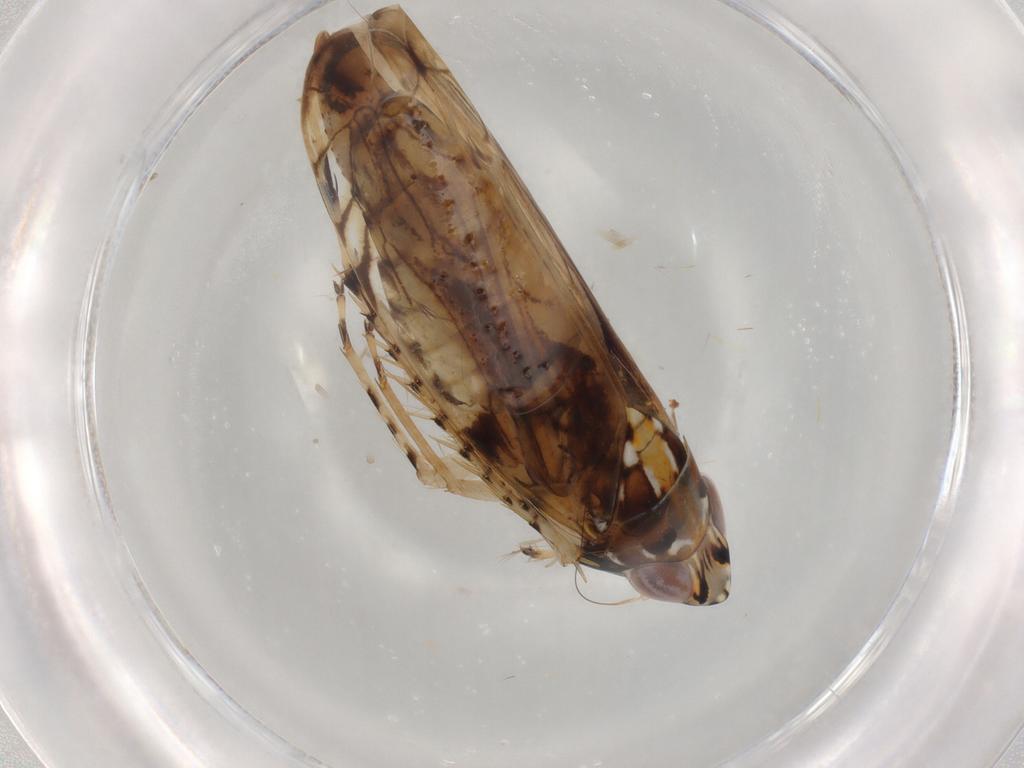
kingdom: Animalia
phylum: Arthropoda
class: Insecta
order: Hemiptera
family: Cicadellidae
